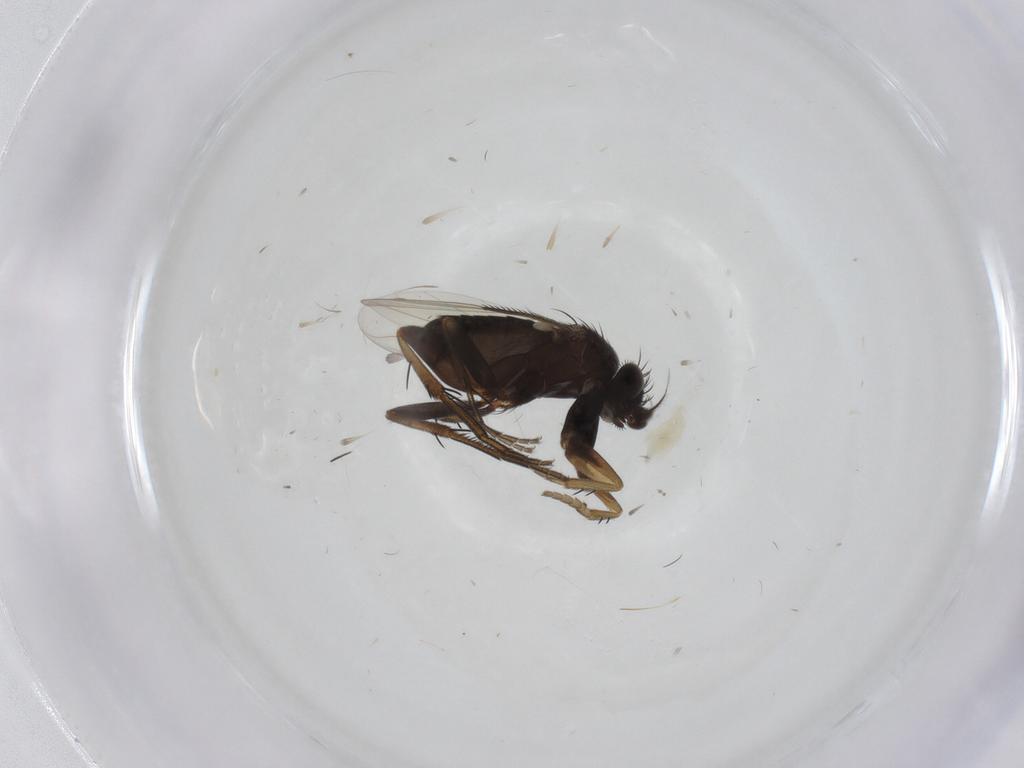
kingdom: Animalia
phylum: Arthropoda
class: Insecta
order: Diptera
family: Phoridae
